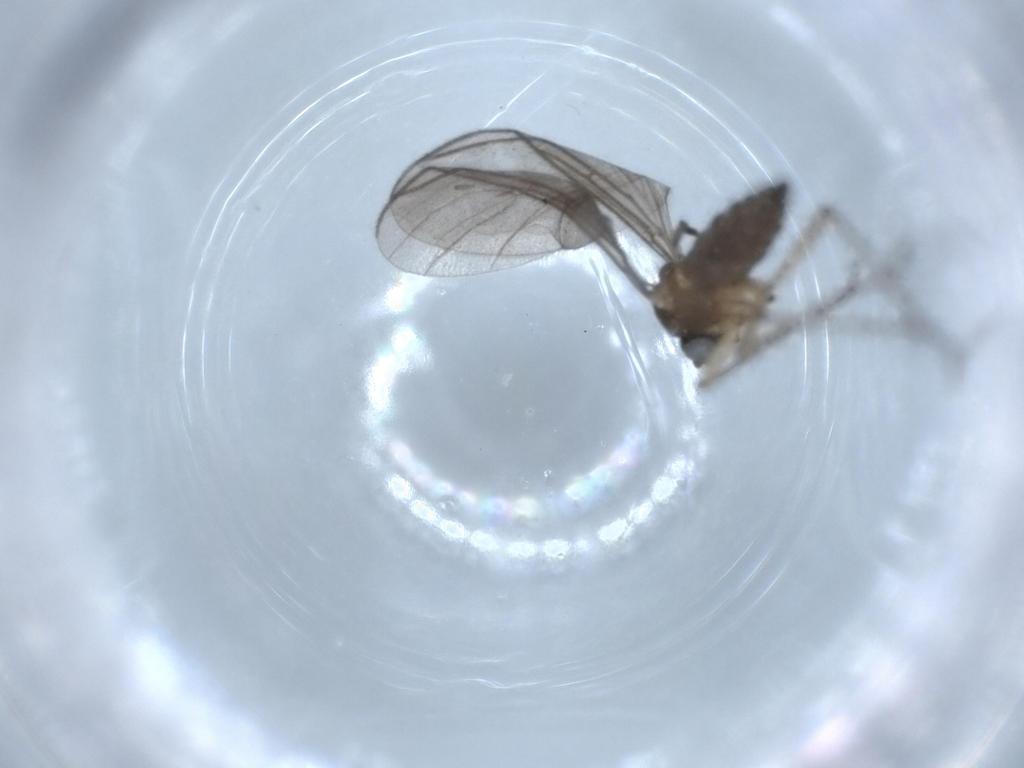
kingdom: Animalia
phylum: Arthropoda
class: Insecta
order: Diptera
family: Sciaridae
